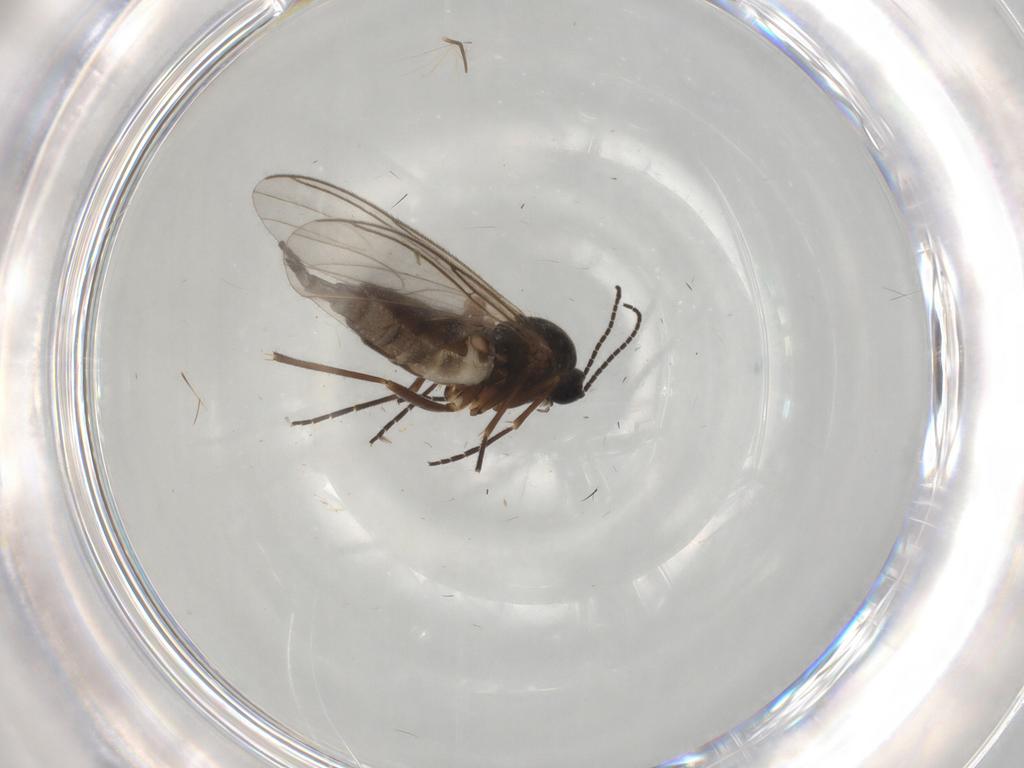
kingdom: Animalia
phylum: Arthropoda
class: Insecta
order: Diptera
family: Sciaridae
